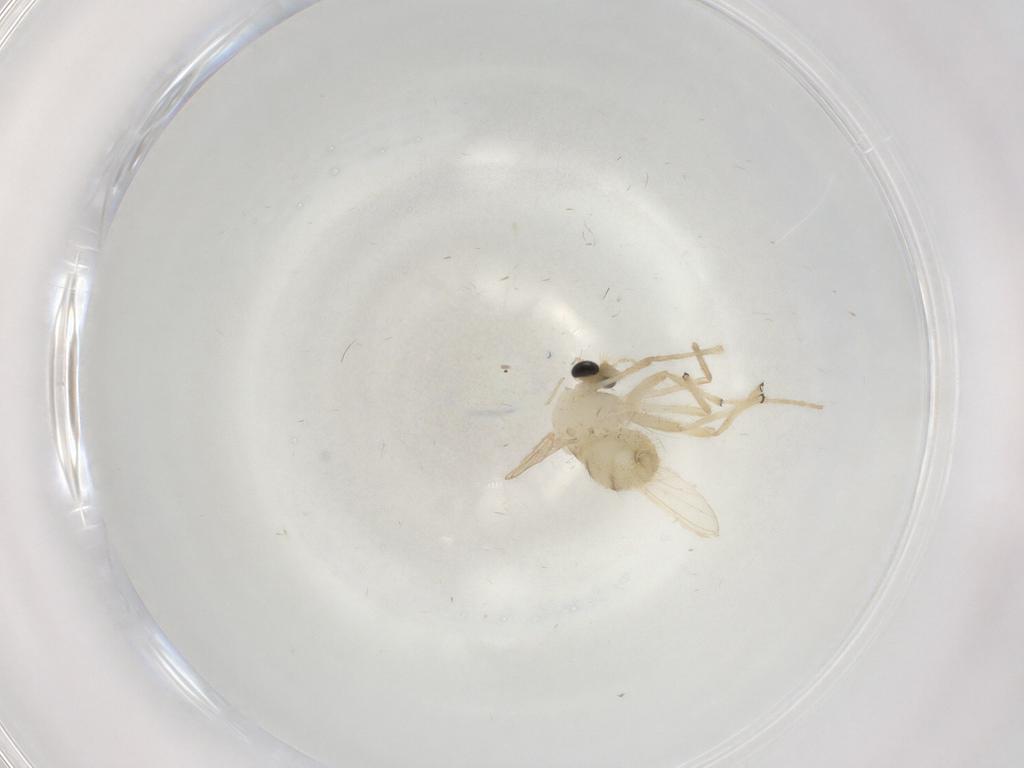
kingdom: Animalia
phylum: Arthropoda
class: Insecta
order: Diptera
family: Chironomidae
